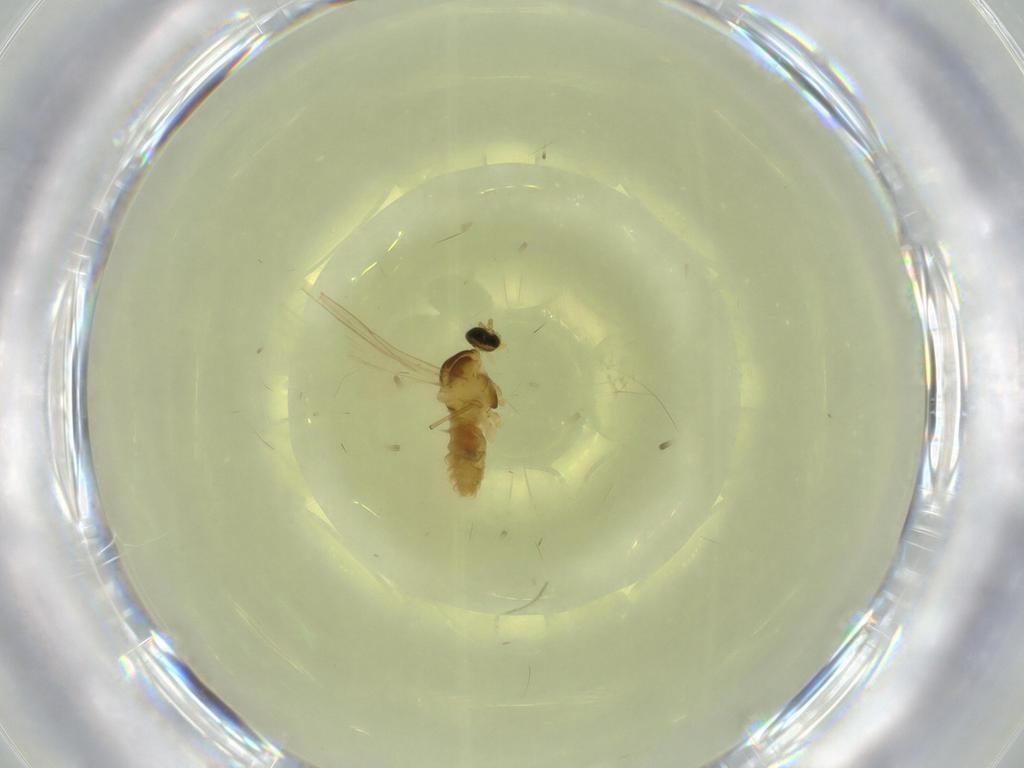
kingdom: Animalia
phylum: Arthropoda
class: Insecta
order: Diptera
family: Cecidomyiidae
